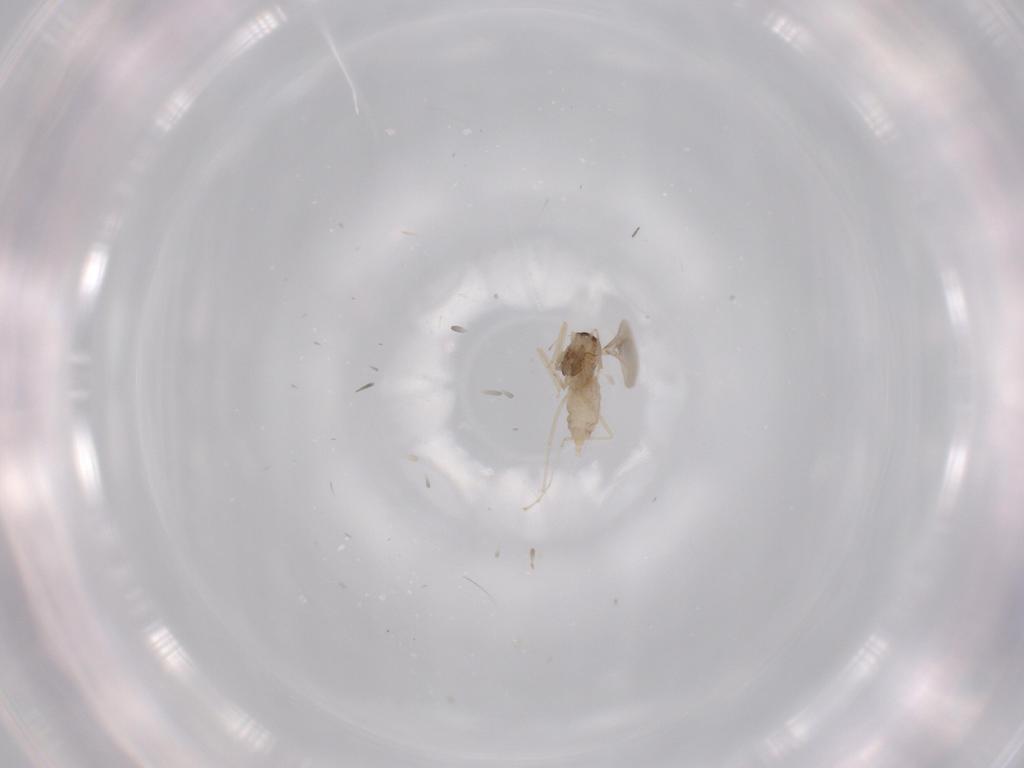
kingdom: Animalia
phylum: Arthropoda
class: Insecta
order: Diptera
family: Cecidomyiidae
